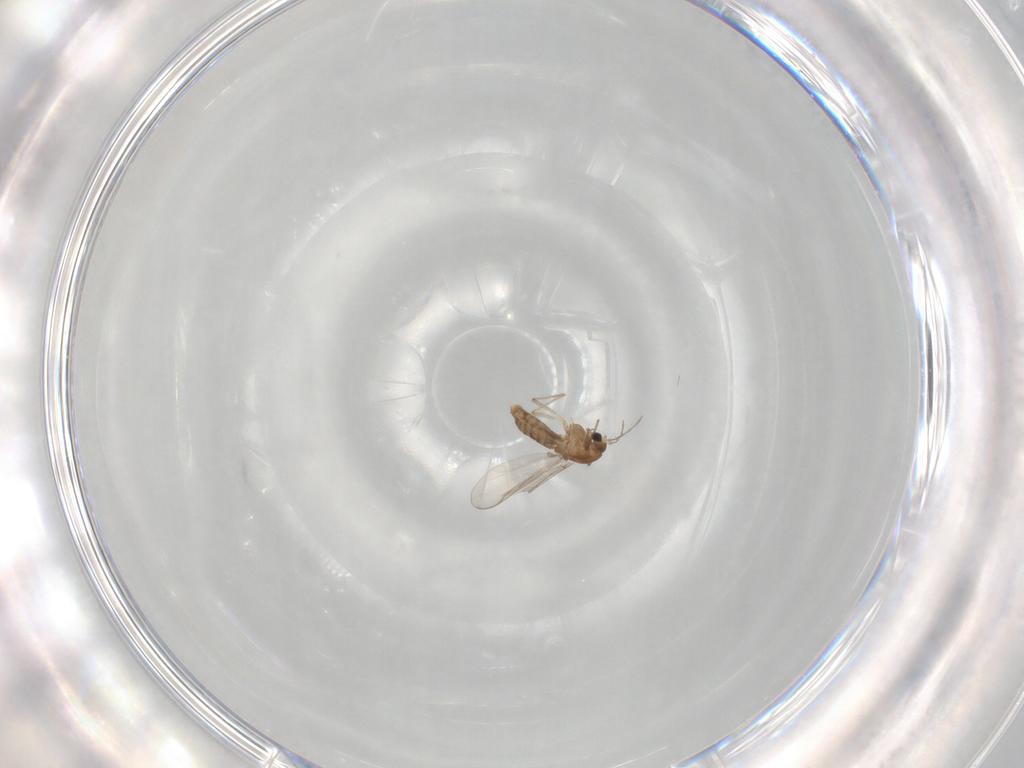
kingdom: Animalia
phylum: Arthropoda
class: Insecta
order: Diptera
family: Chironomidae
